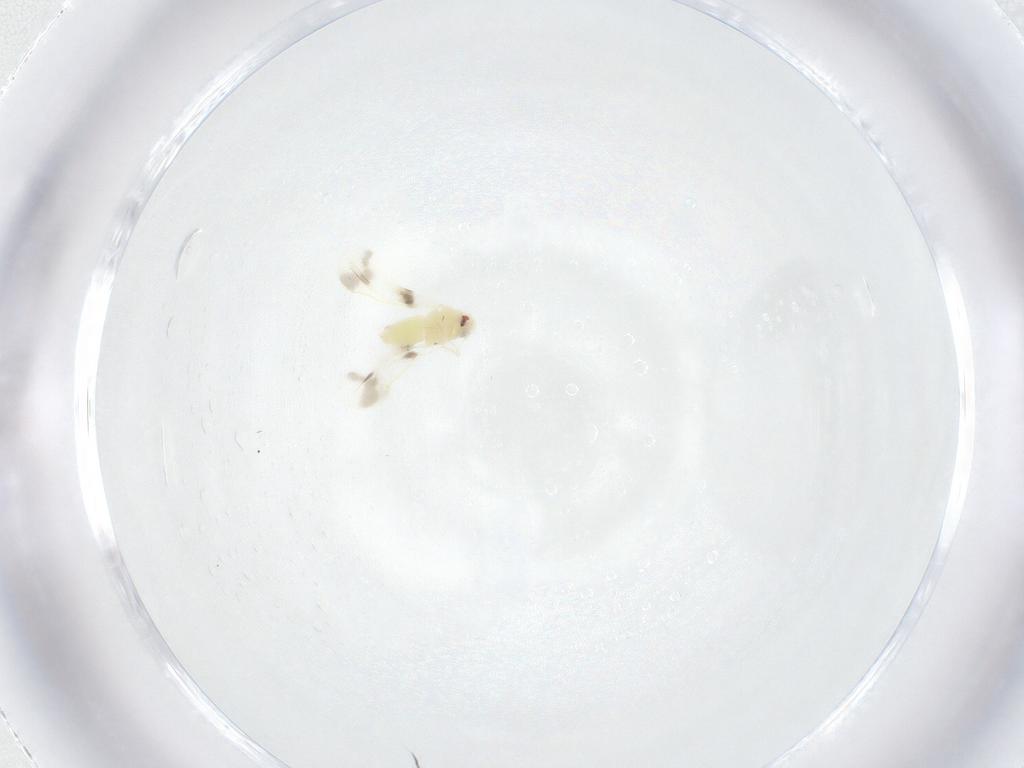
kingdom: Animalia
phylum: Arthropoda
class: Insecta
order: Hemiptera
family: Aleyrodidae
